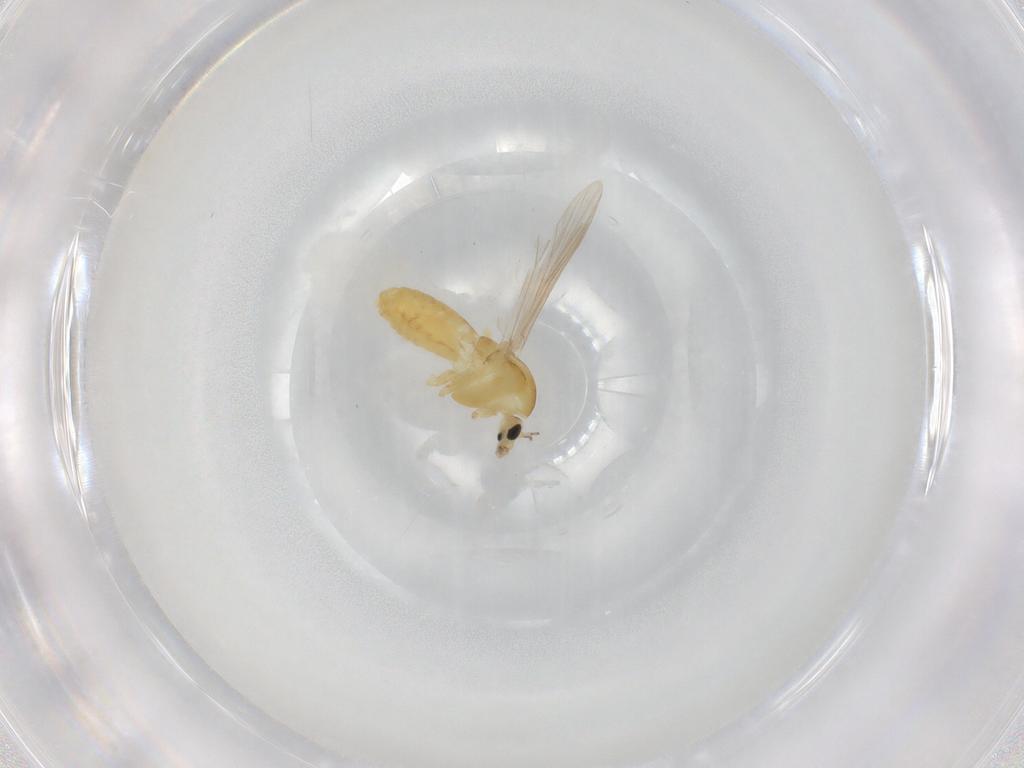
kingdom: Animalia
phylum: Arthropoda
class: Insecta
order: Diptera
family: Chironomidae
